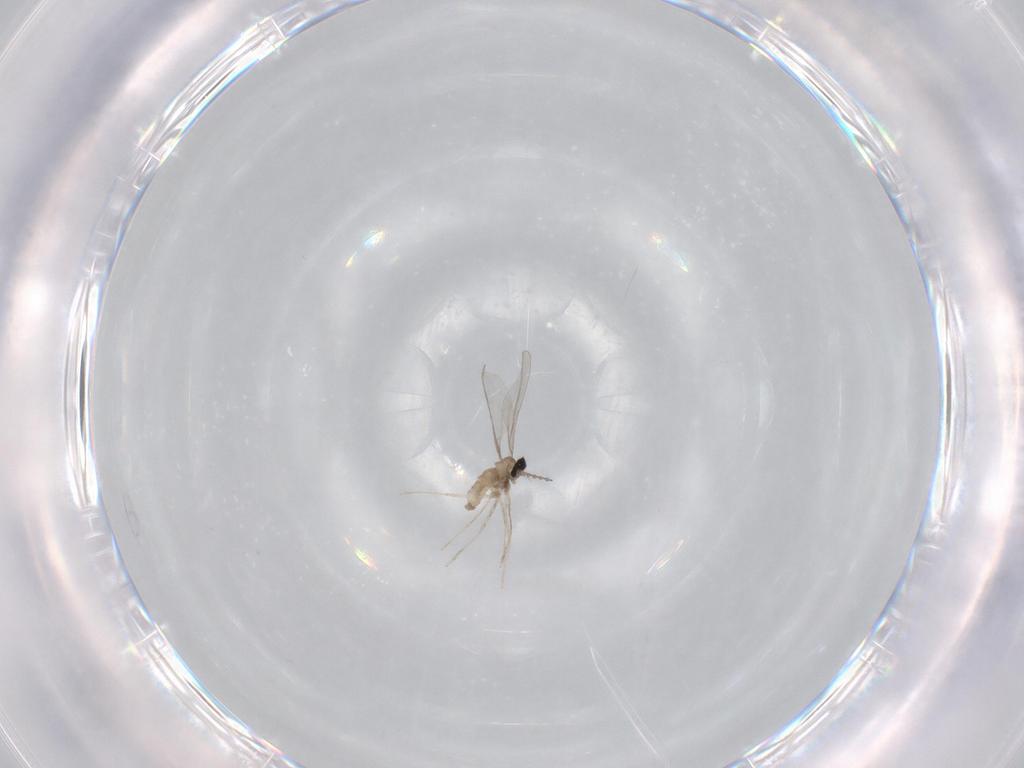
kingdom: Animalia
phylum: Arthropoda
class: Insecta
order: Diptera
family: Chironomidae
